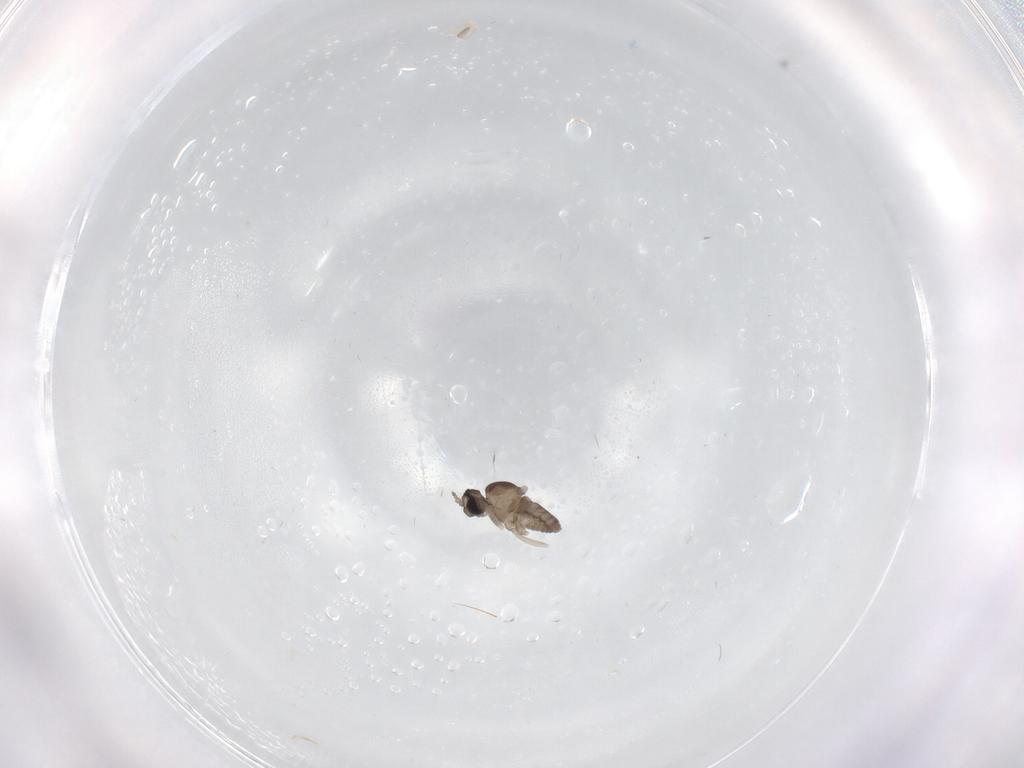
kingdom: Animalia
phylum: Arthropoda
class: Insecta
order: Diptera
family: Cecidomyiidae
